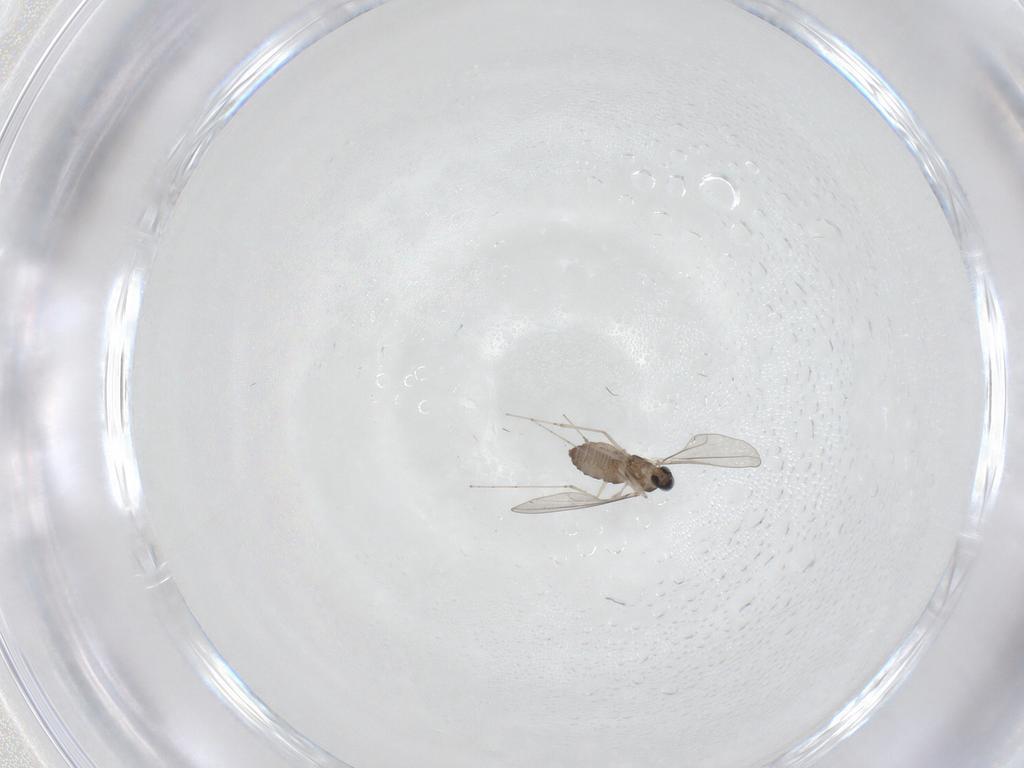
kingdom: Animalia
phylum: Arthropoda
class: Insecta
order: Diptera
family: Cecidomyiidae
